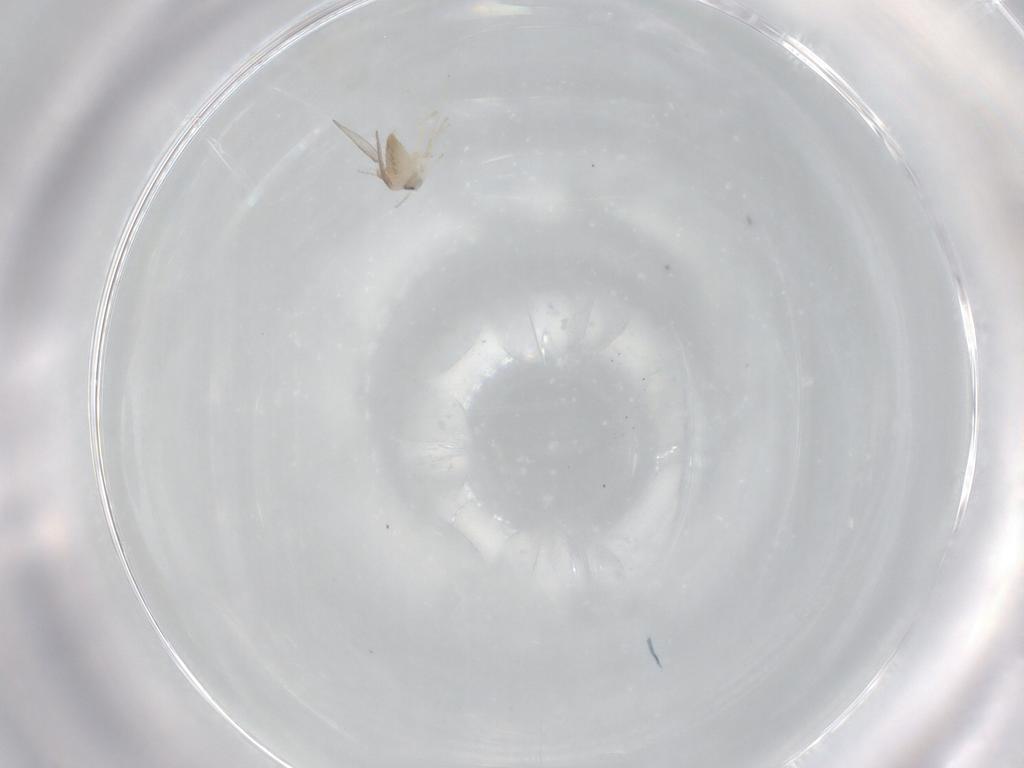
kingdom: Animalia
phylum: Arthropoda
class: Insecta
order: Diptera
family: Cecidomyiidae
